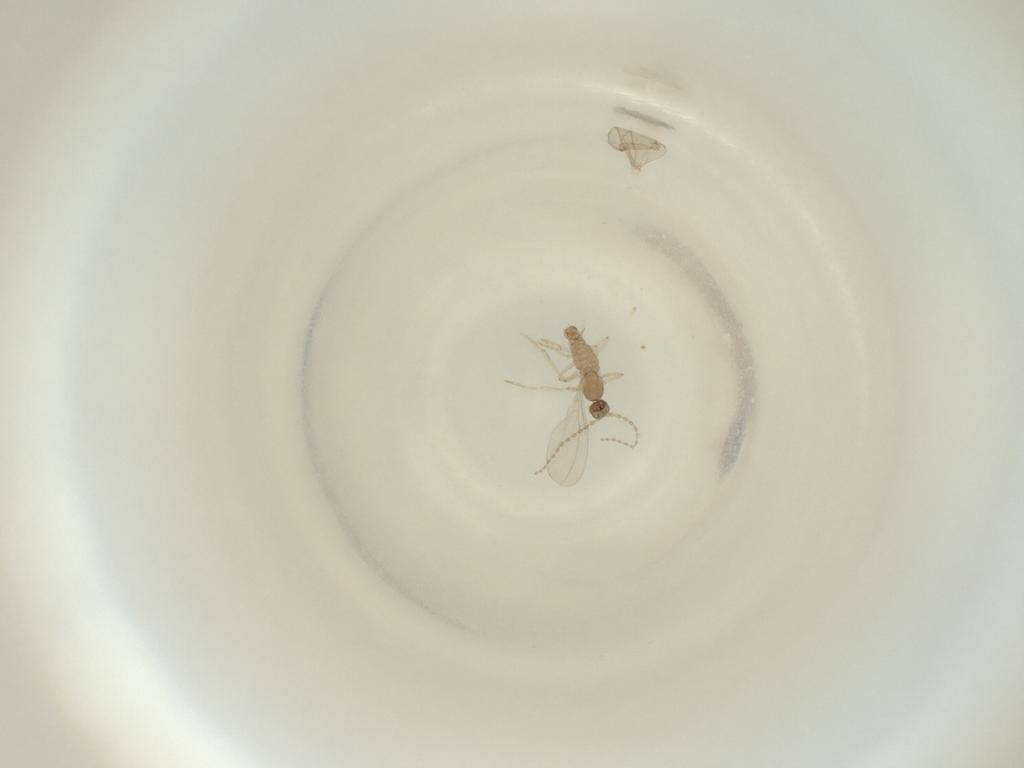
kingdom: Animalia
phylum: Arthropoda
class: Insecta
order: Diptera
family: Cecidomyiidae
